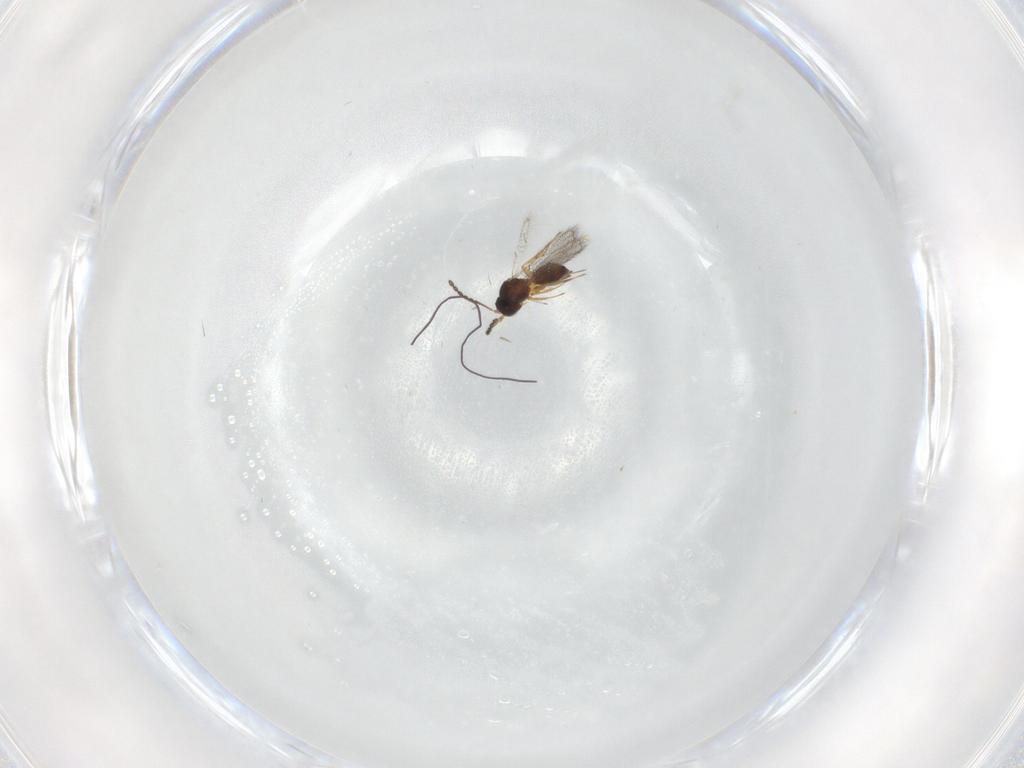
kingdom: Animalia
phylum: Arthropoda
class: Insecta
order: Hymenoptera
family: Figitidae
